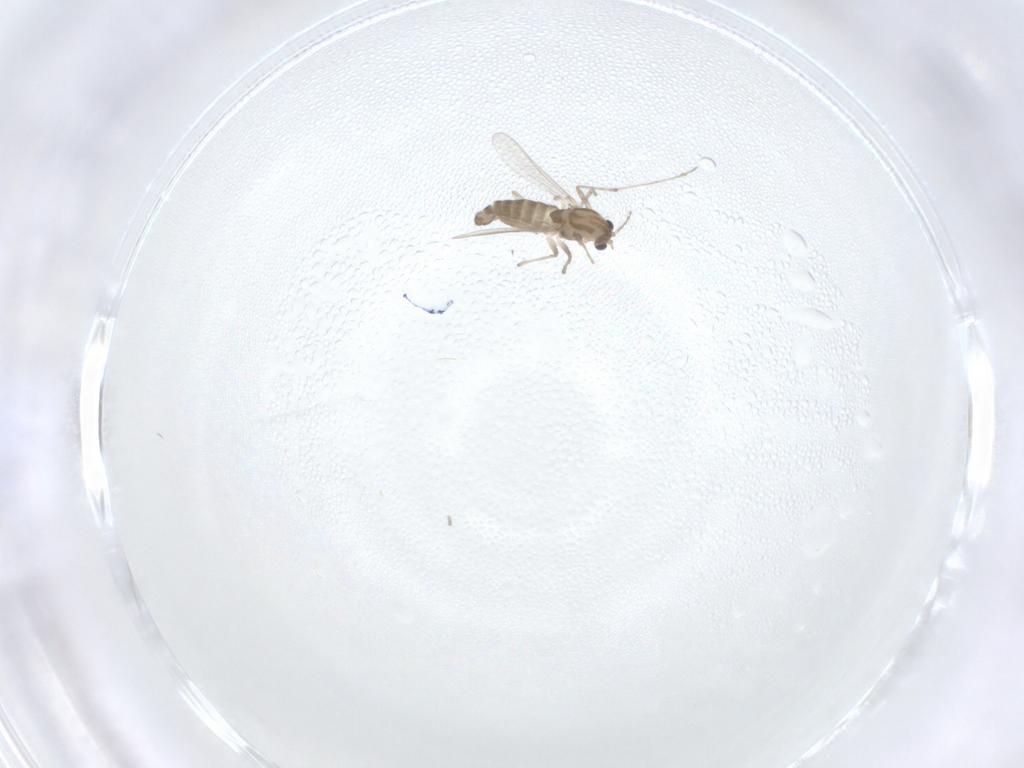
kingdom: Animalia
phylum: Arthropoda
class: Insecta
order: Diptera
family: Chironomidae
